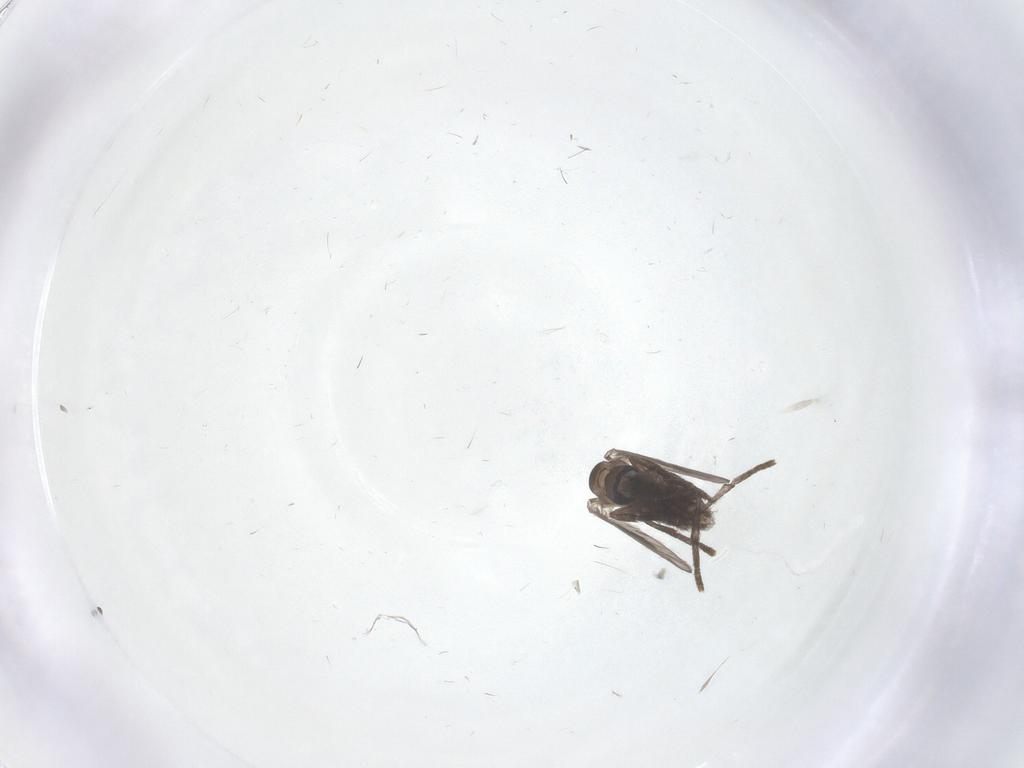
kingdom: Animalia
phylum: Arthropoda
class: Insecta
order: Diptera
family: Psychodidae
